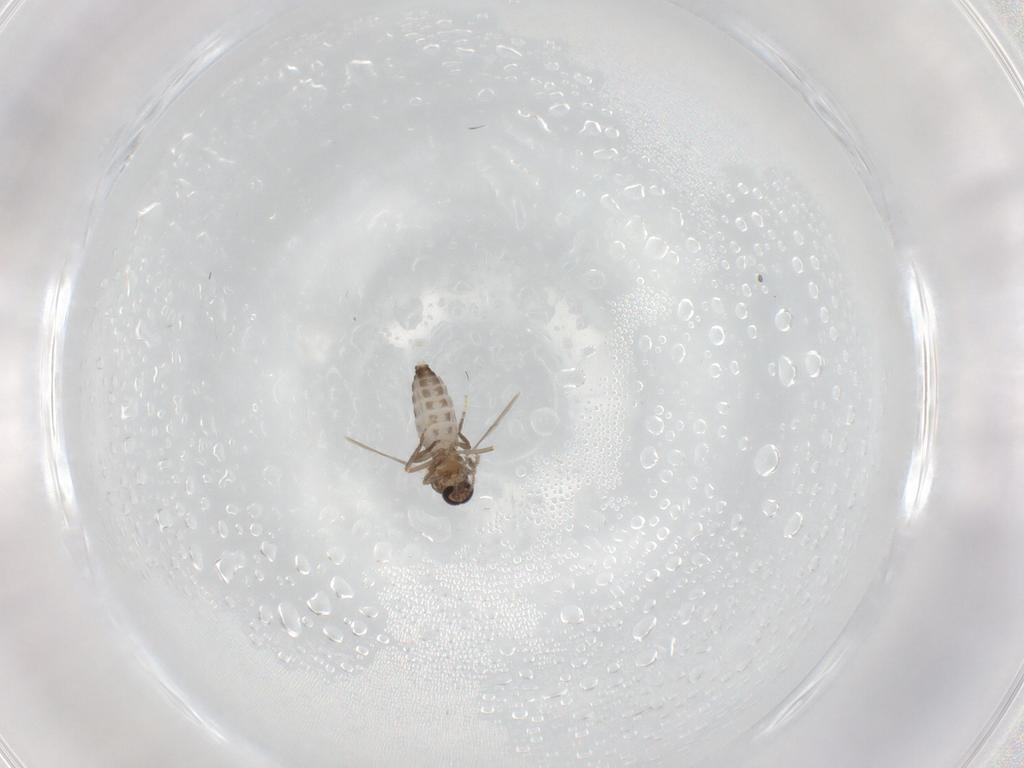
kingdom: Animalia
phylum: Arthropoda
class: Insecta
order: Diptera
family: Ceratopogonidae
